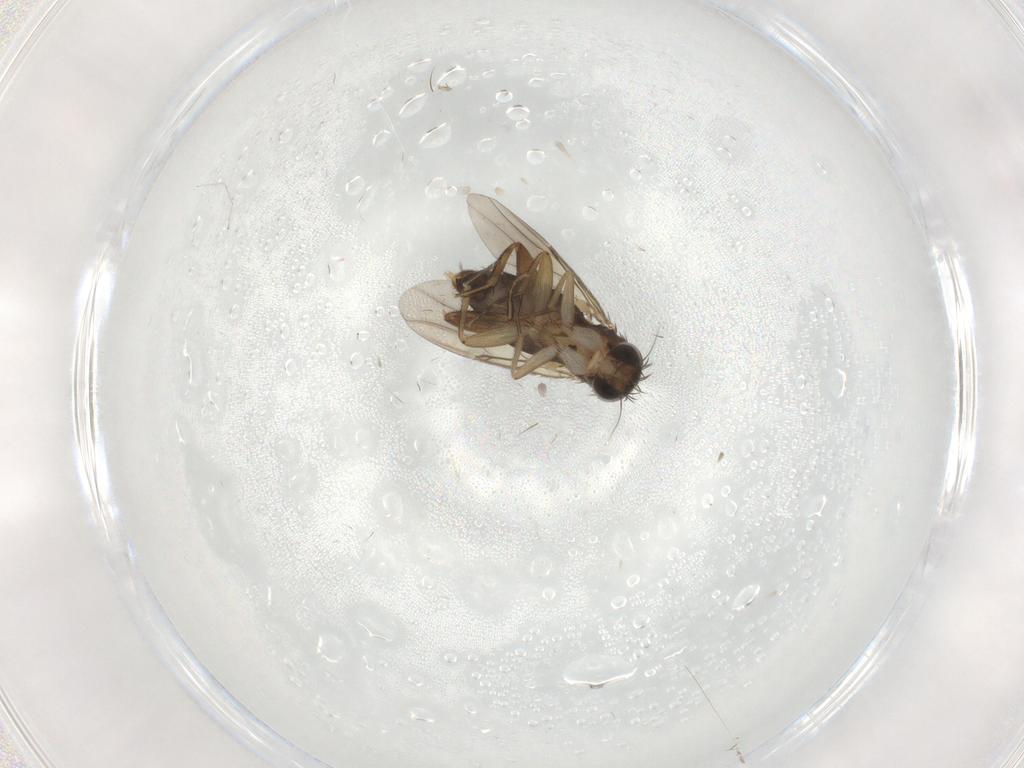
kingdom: Animalia
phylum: Arthropoda
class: Insecta
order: Diptera
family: Phoridae
